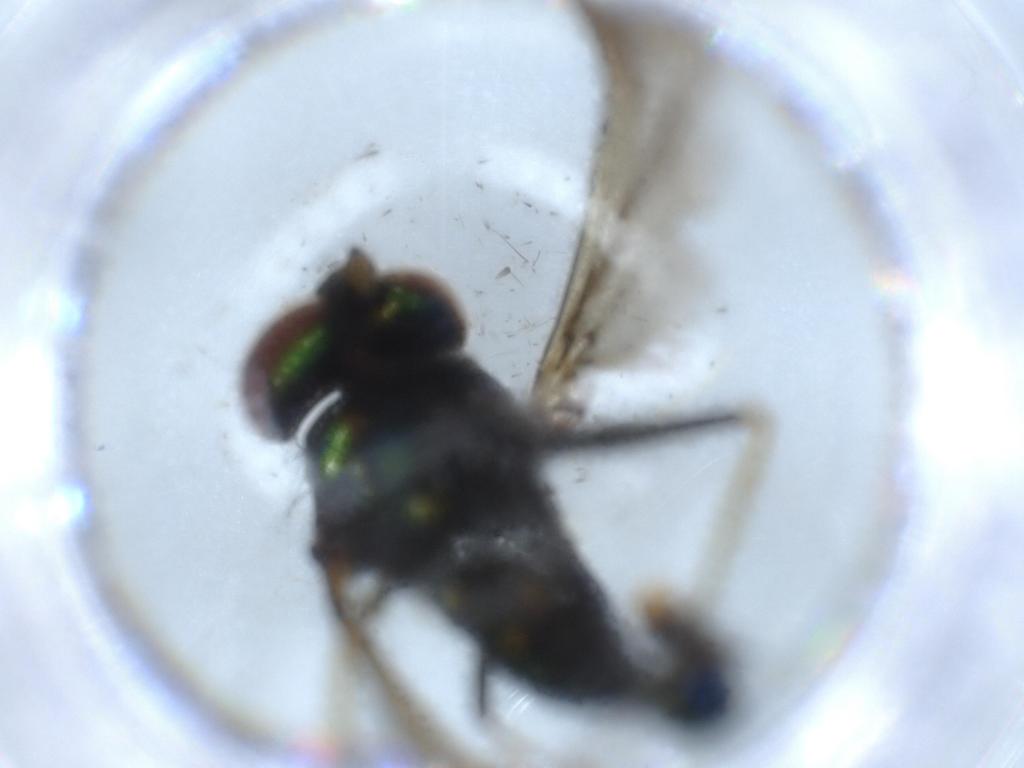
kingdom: Animalia
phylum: Arthropoda
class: Insecta
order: Diptera
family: Dolichopodidae
